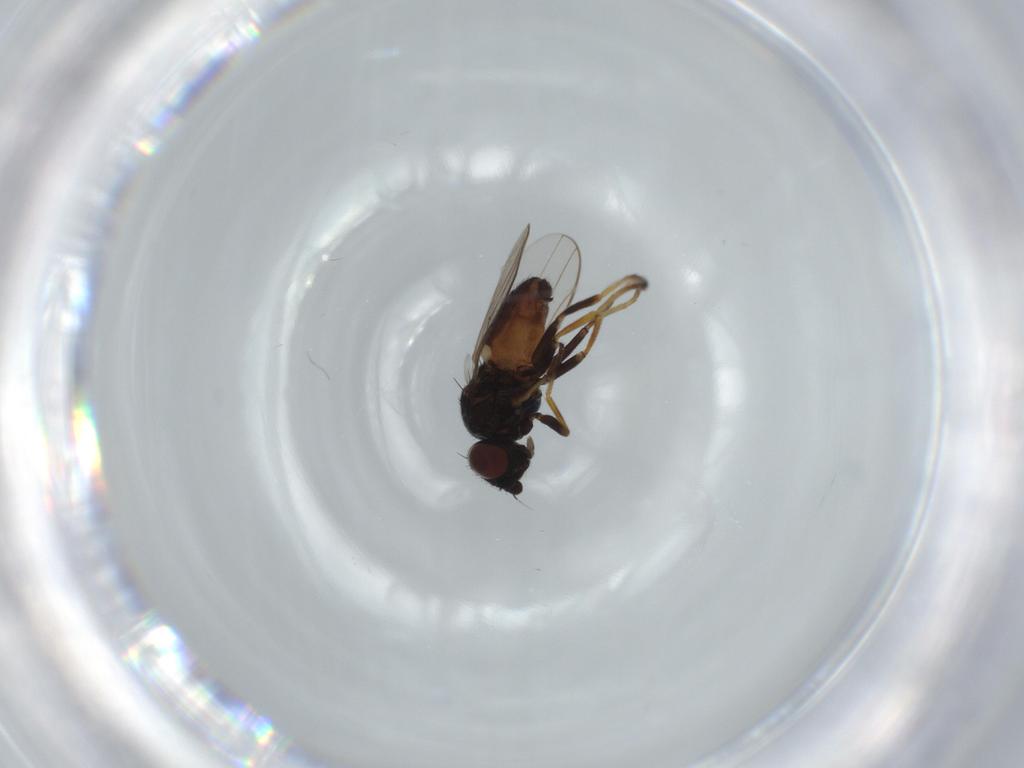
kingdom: Animalia
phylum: Arthropoda
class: Insecta
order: Diptera
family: Chloropidae
